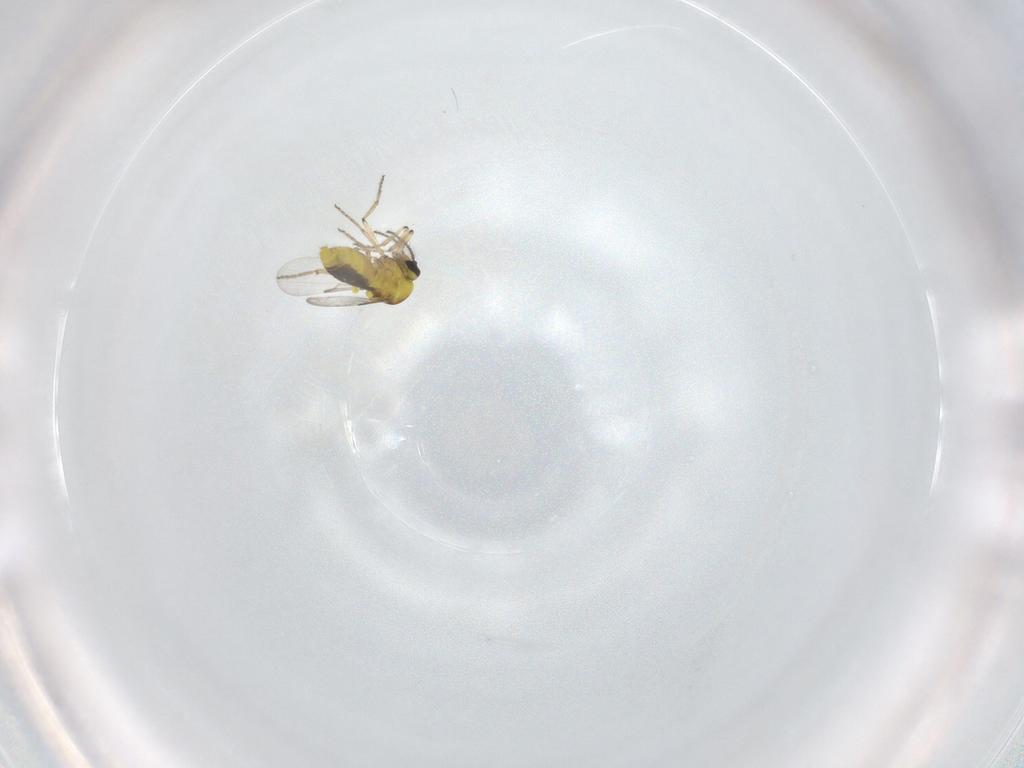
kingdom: Animalia
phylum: Arthropoda
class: Insecta
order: Diptera
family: Ceratopogonidae
